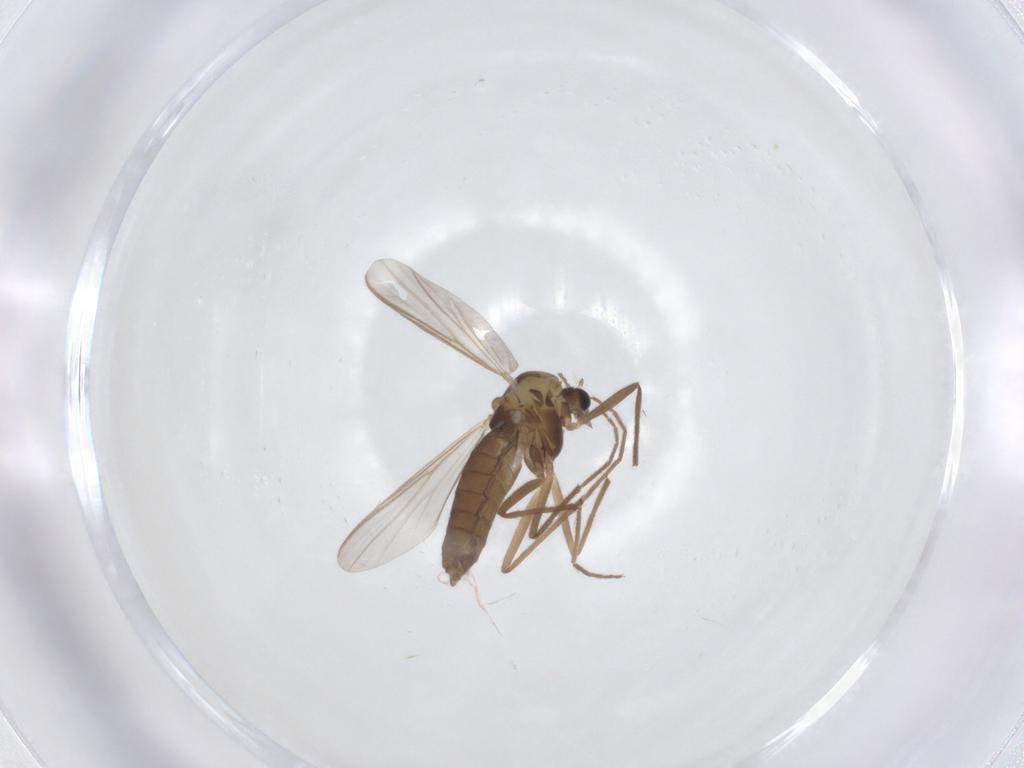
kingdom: Animalia
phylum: Arthropoda
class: Insecta
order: Diptera
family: Chironomidae
